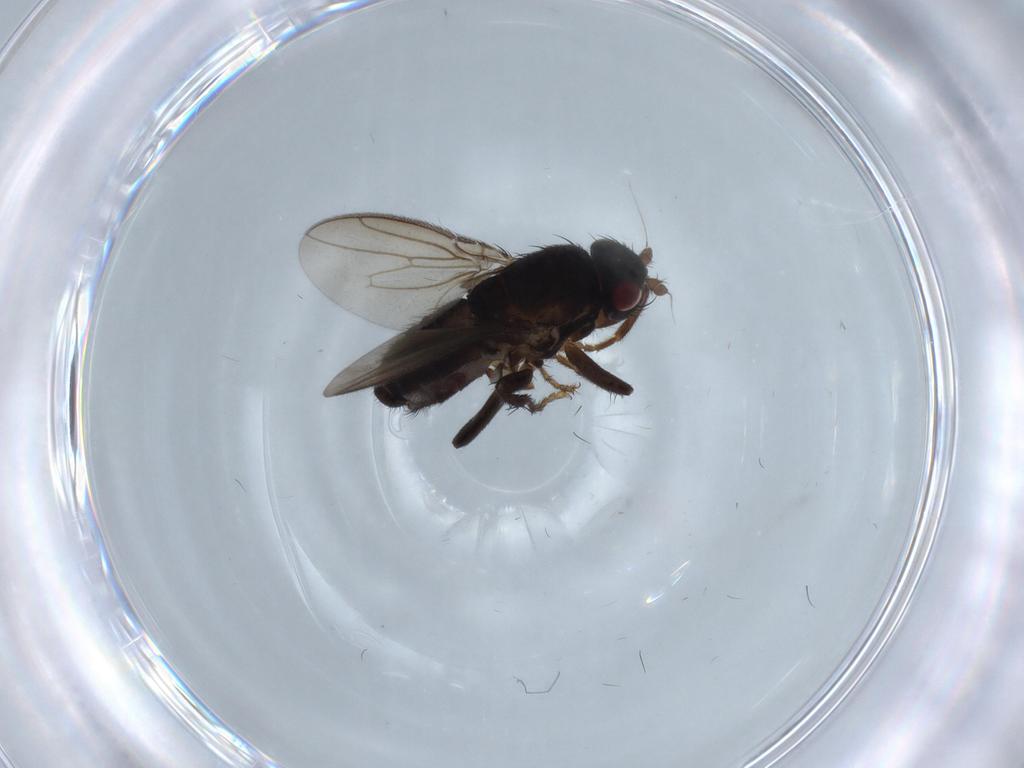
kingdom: Animalia
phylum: Arthropoda
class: Insecta
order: Diptera
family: Sphaeroceridae
